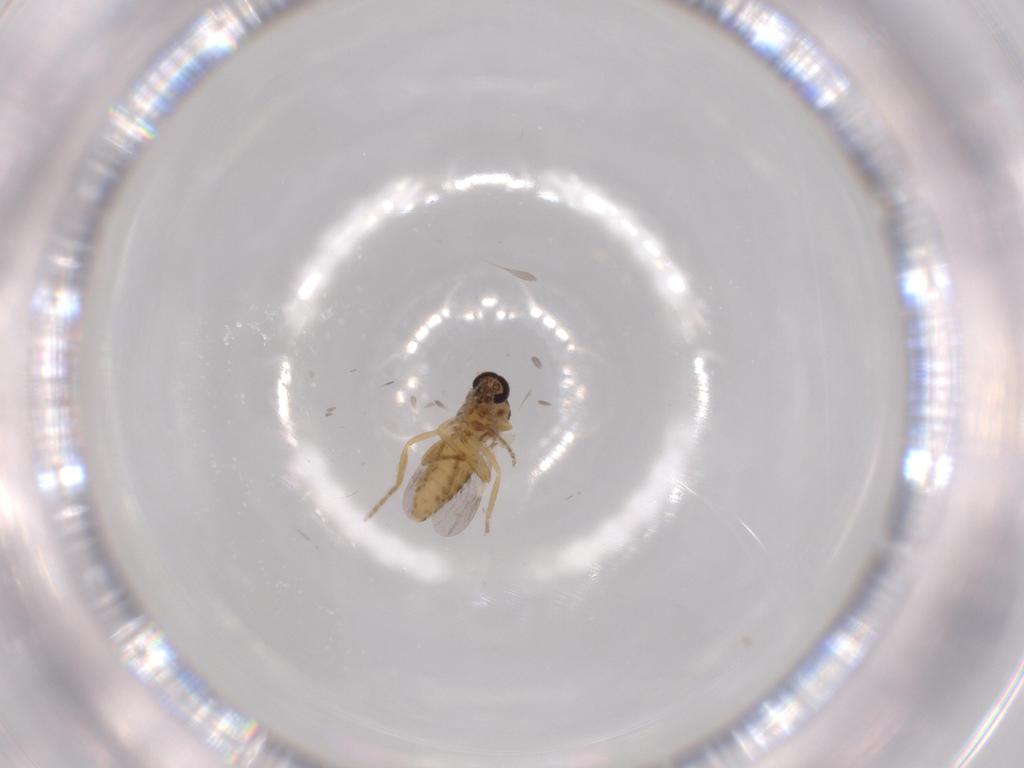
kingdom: Animalia
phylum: Arthropoda
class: Insecta
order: Diptera
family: Ceratopogonidae
